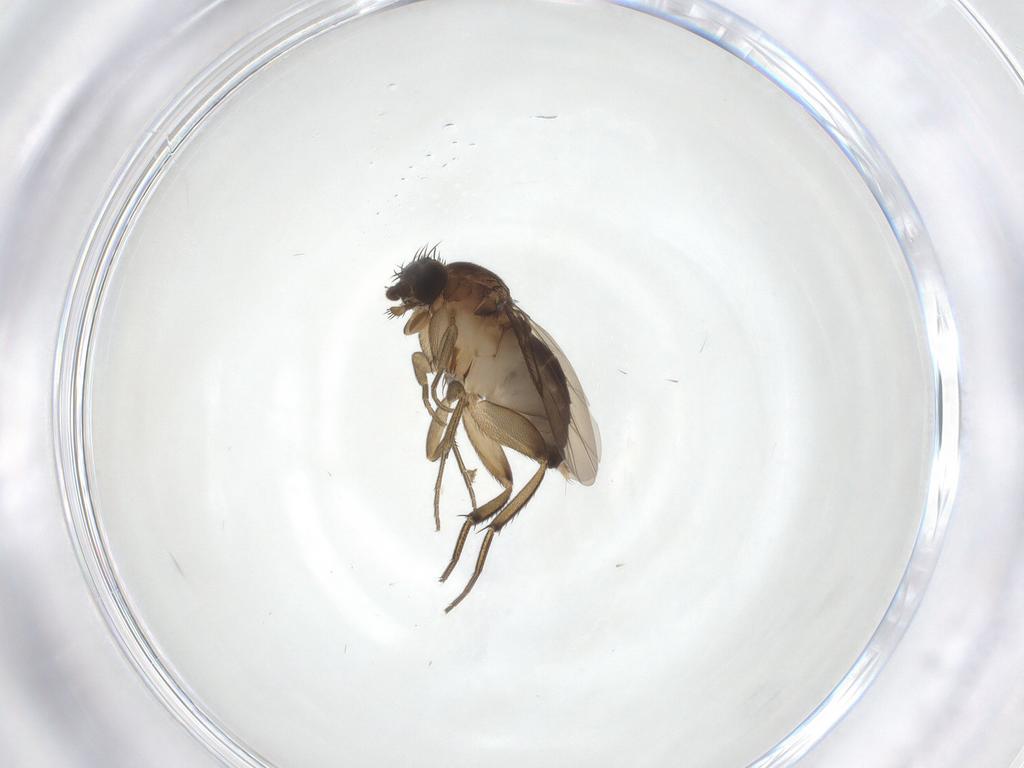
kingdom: Animalia
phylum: Arthropoda
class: Insecta
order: Diptera
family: Phoridae
